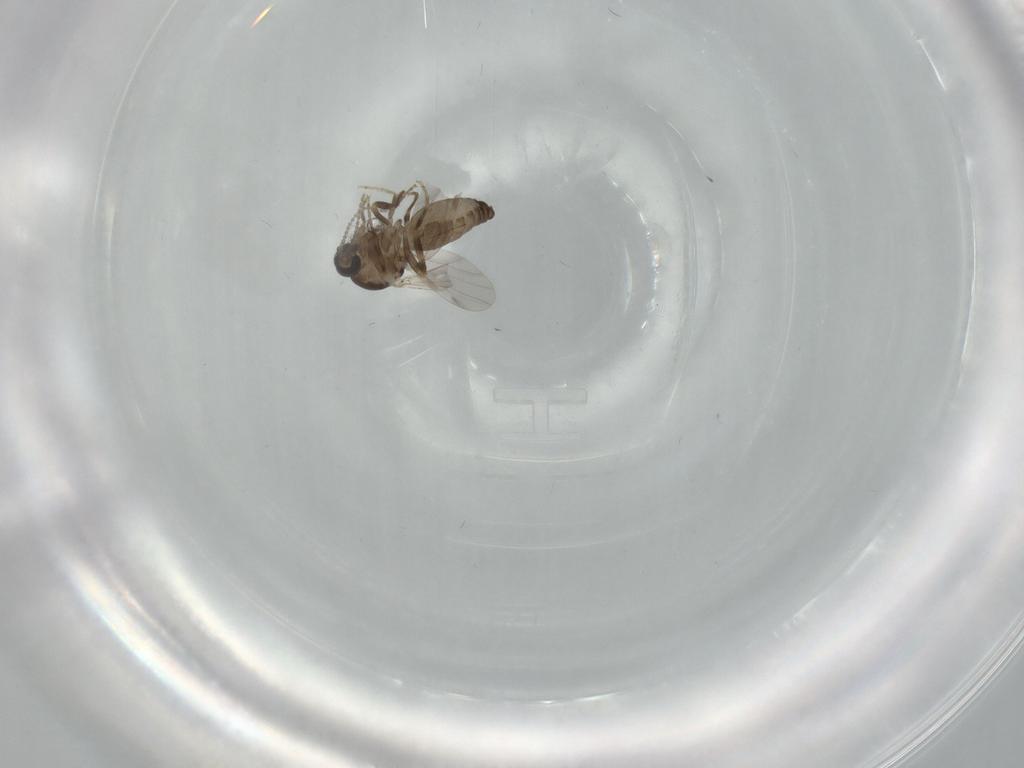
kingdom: Animalia
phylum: Arthropoda
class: Insecta
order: Diptera
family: Ceratopogonidae
